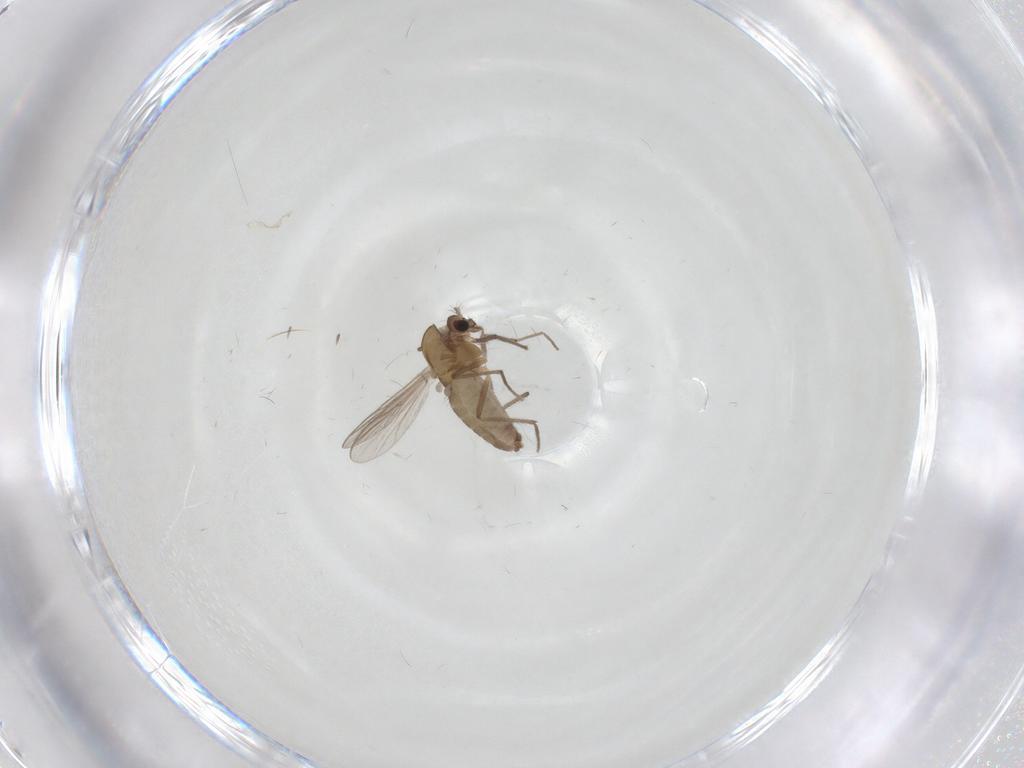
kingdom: Animalia
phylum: Arthropoda
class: Insecta
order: Diptera
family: Chironomidae
